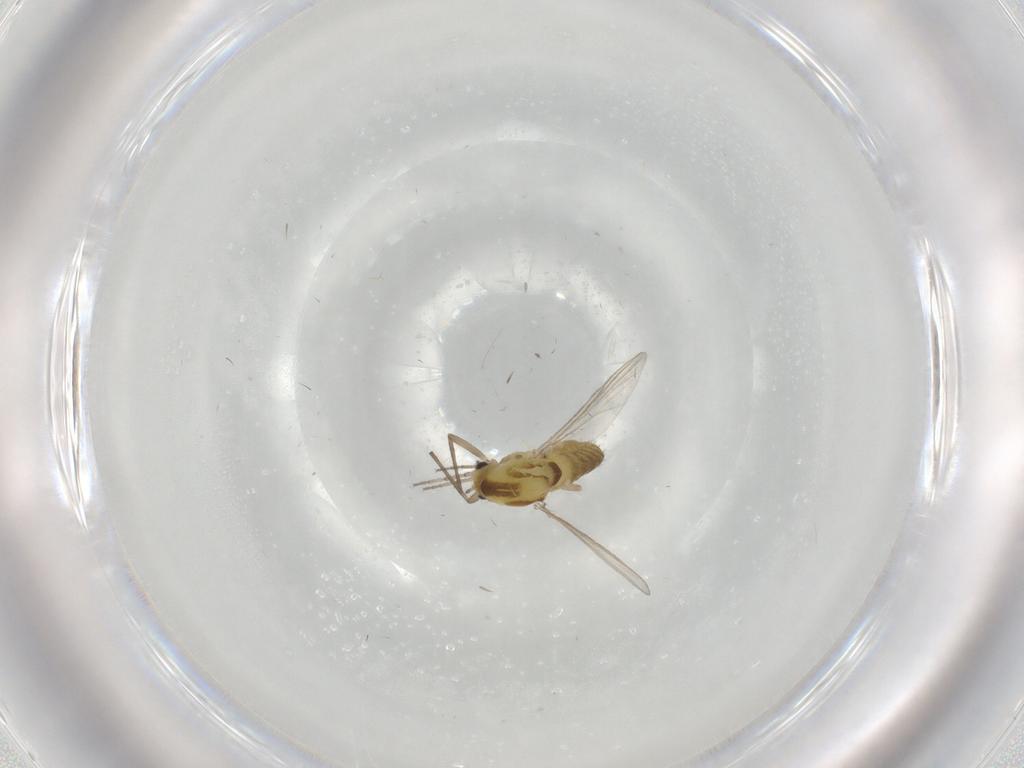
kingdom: Animalia
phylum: Arthropoda
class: Insecta
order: Diptera
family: Chironomidae
